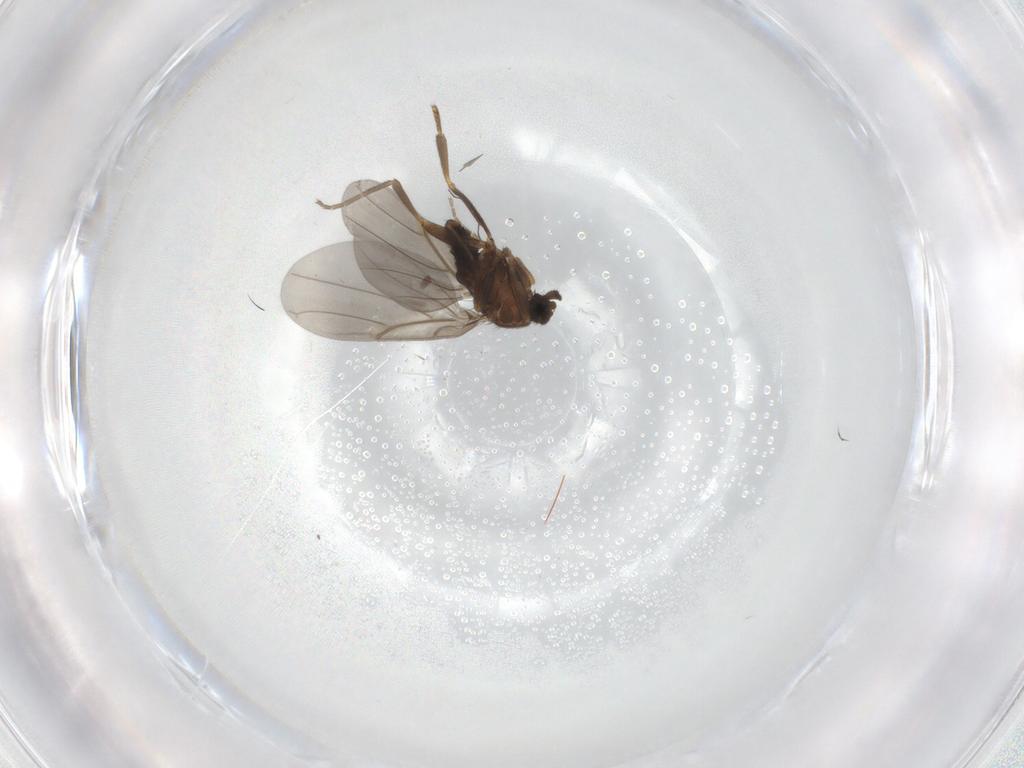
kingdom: Animalia
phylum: Arthropoda
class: Insecta
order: Diptera
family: Phoridae
